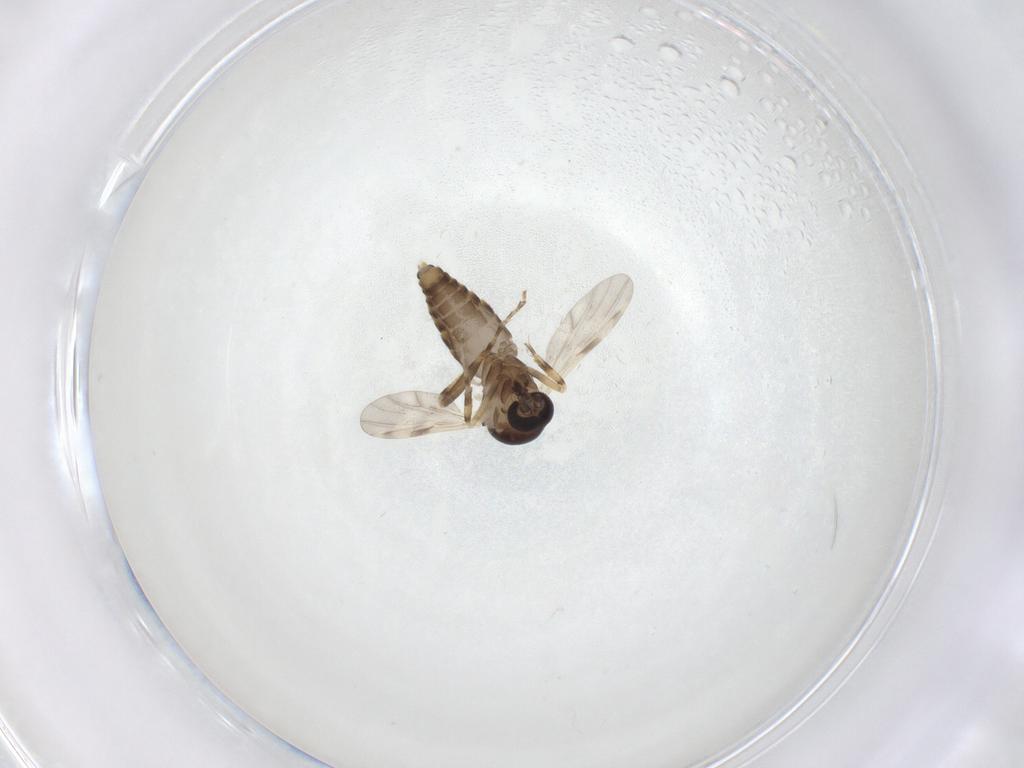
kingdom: Animalia
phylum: Arthropoda
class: Insecta
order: Diptera
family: Ceratopogonidae
